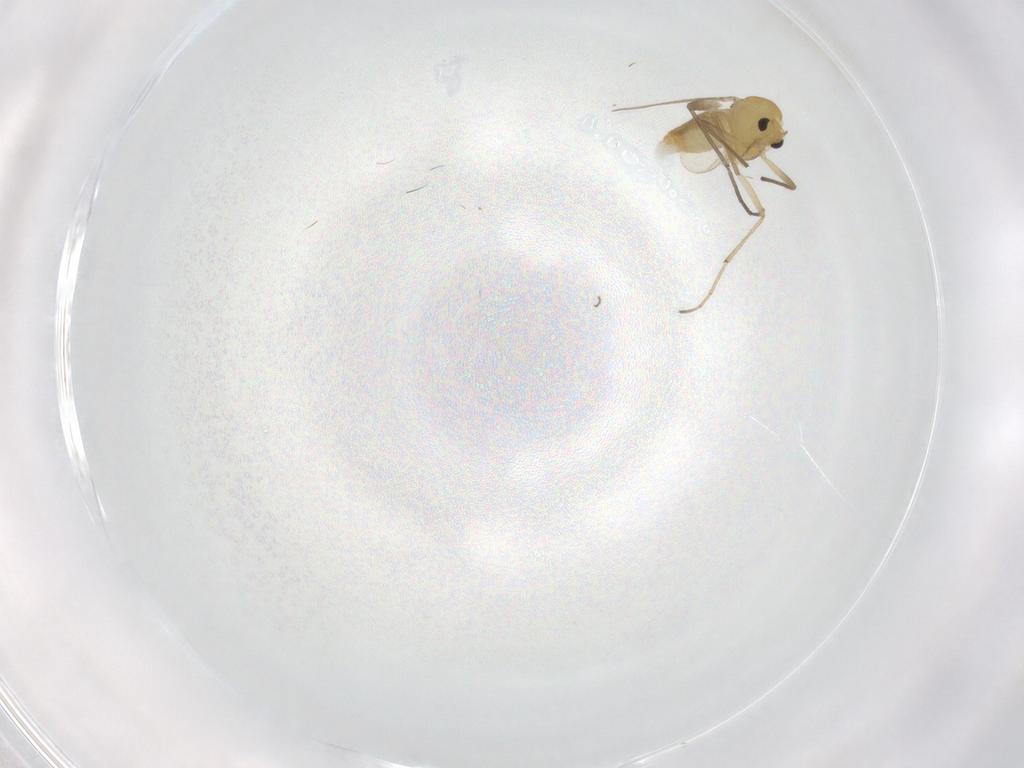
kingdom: Animalia
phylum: Arthropoda
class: Insecta
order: Diptera
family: Chironomidae
